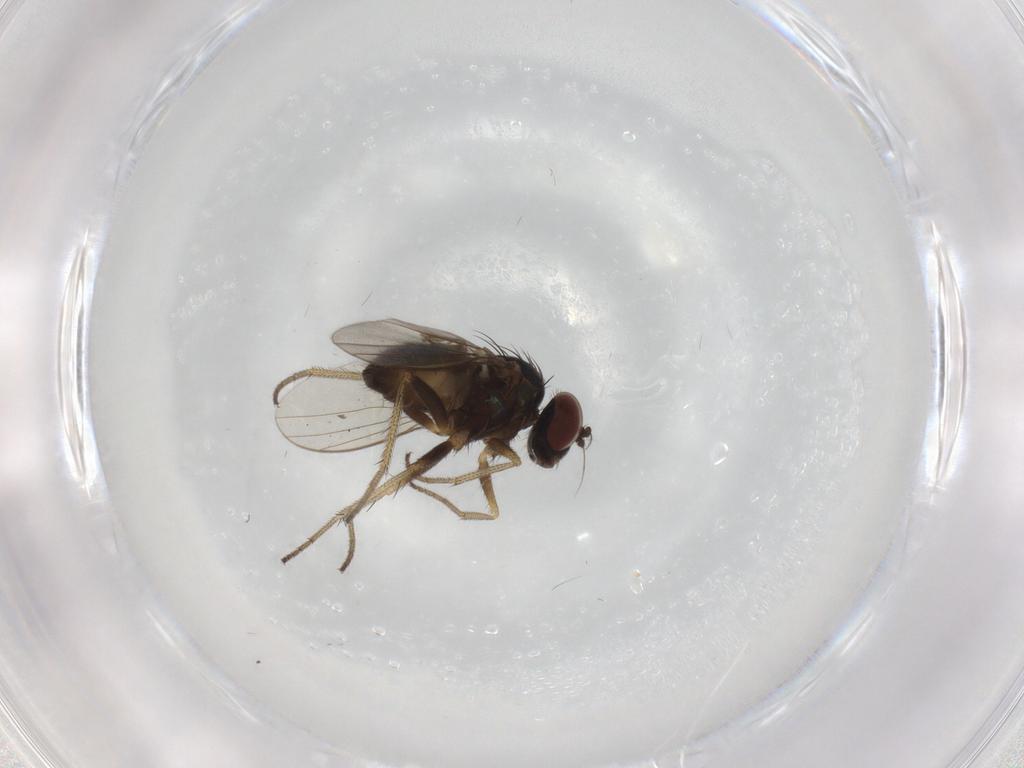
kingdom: Animalia
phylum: Arthropoda
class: Insecta
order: Diptera
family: Dolichopodidae
